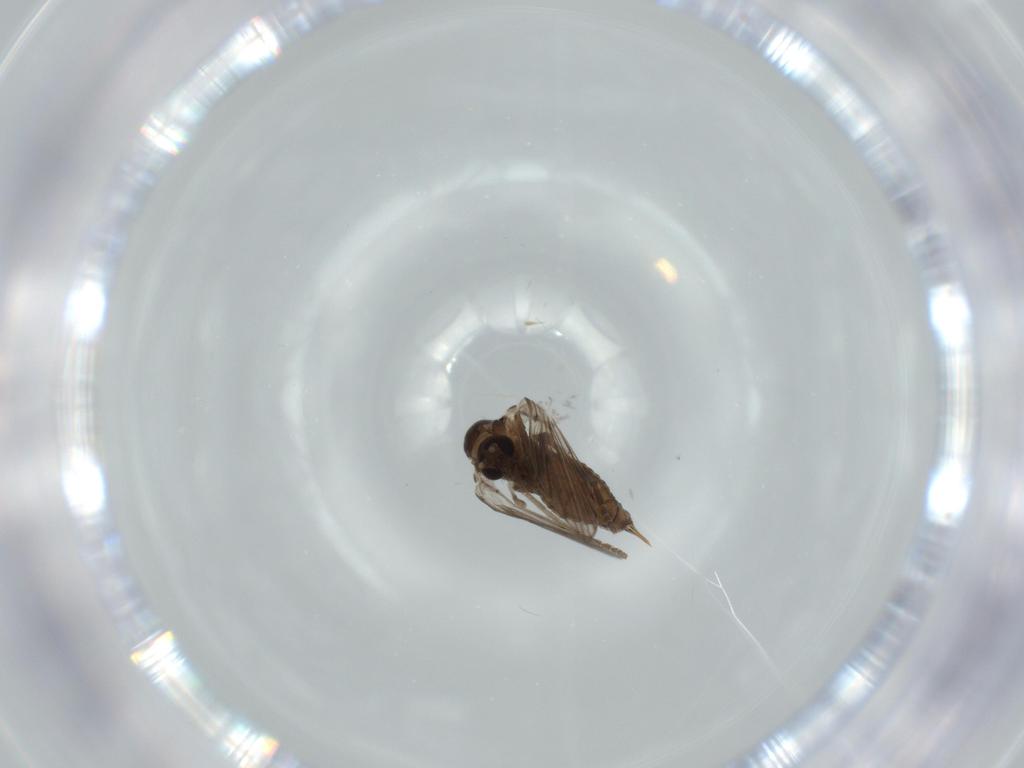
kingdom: Animalia
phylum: Arthropoda
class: Insecta
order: Diptera
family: Psychodidae
